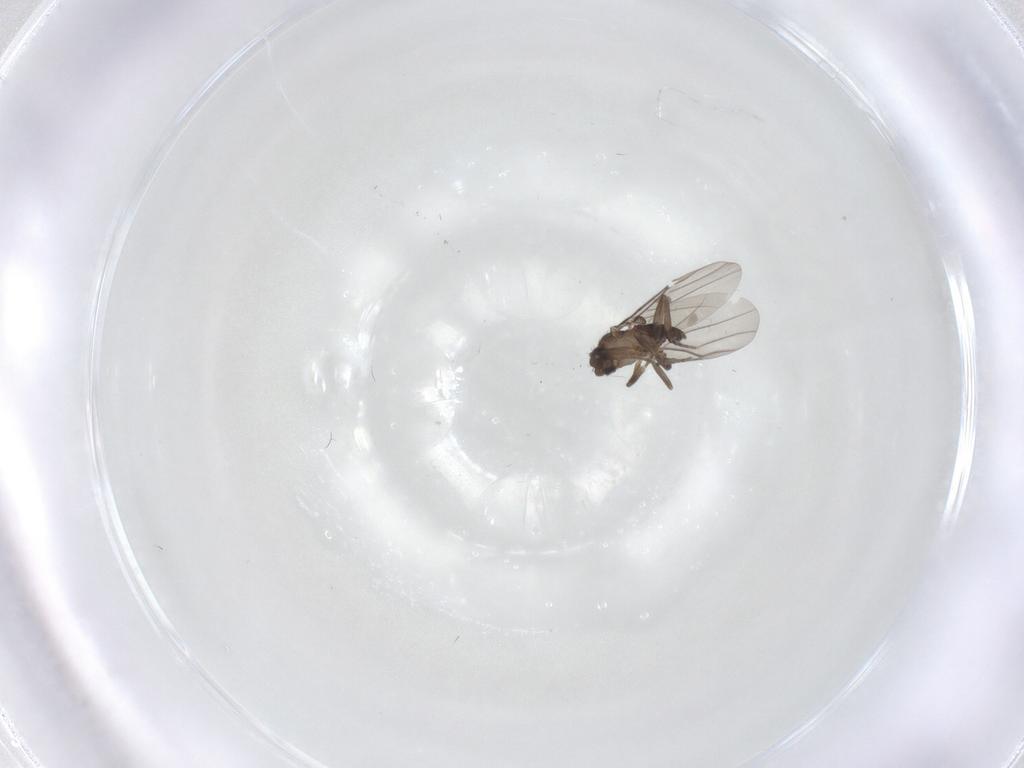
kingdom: Animalia
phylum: Arthropoda
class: Insecta
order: Diptera
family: Phoridae
